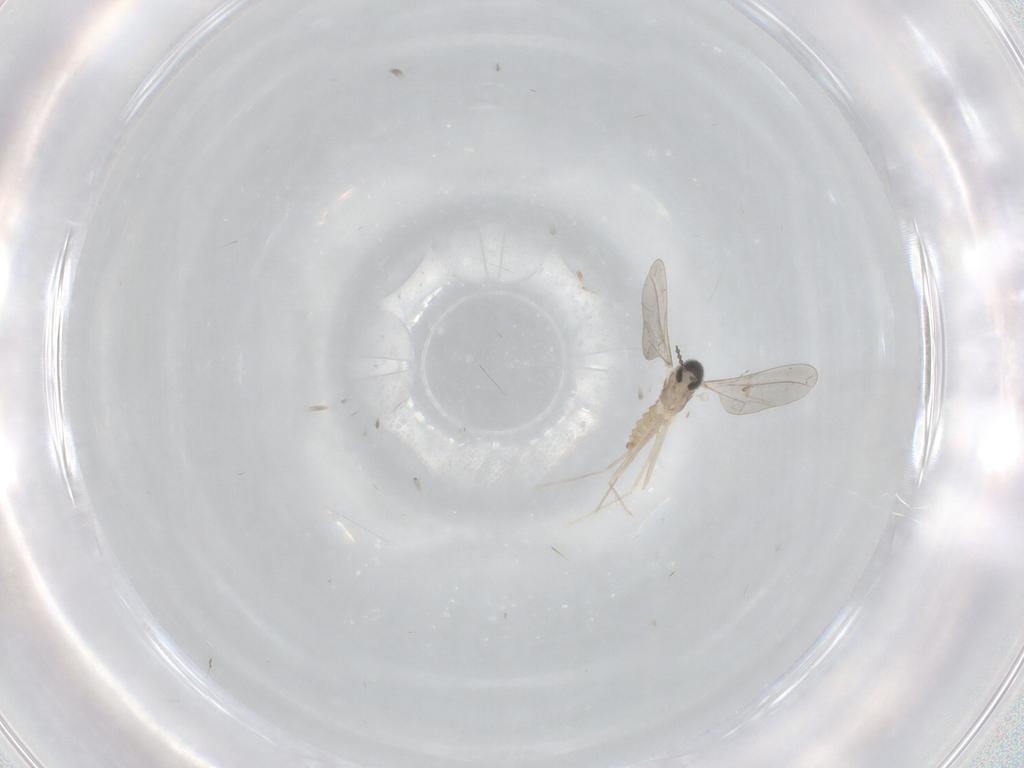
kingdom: Animalia
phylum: Arthropoda
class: Insecta
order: Diptera
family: Cecidomyiidae
